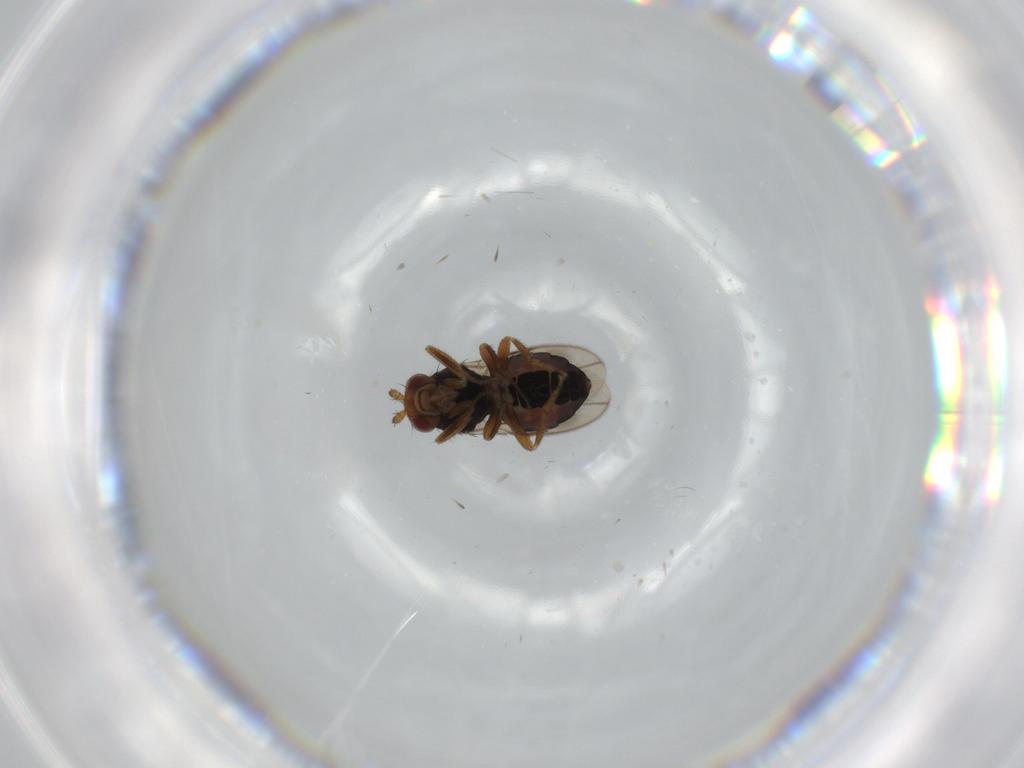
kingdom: Animalia
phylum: Arthropoda
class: Insecta
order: Diptera
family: Sphaeroceridae
